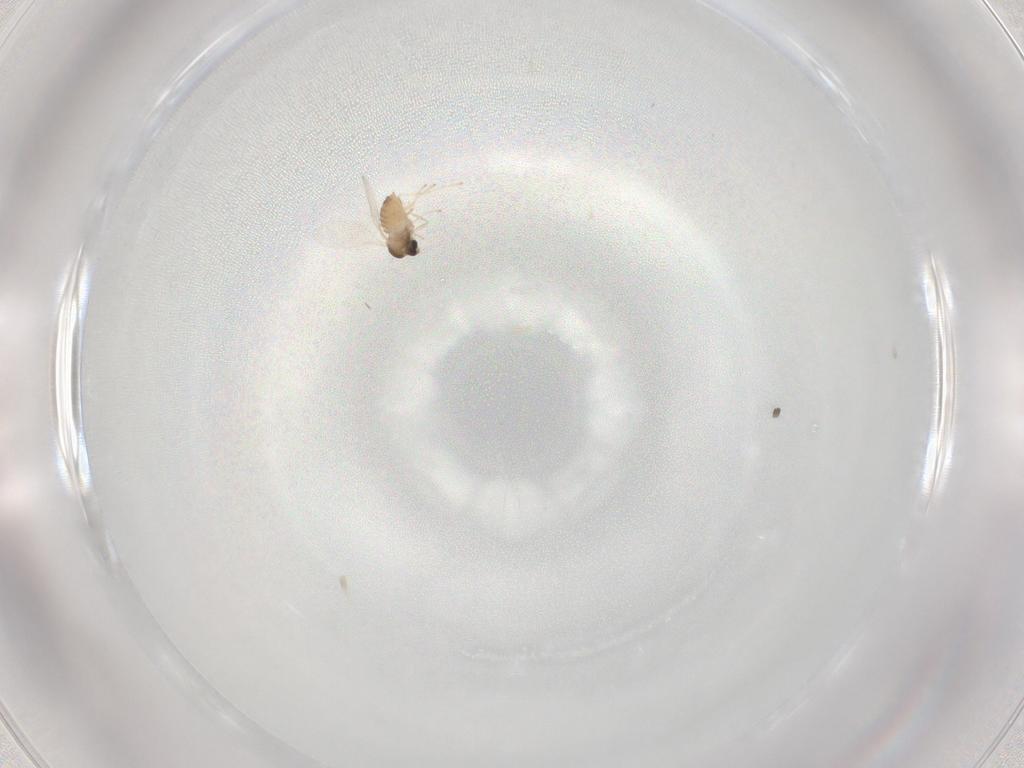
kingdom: Animalia
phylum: Arthropoda
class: Insecta
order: Diptera
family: Cecidomyiidae
